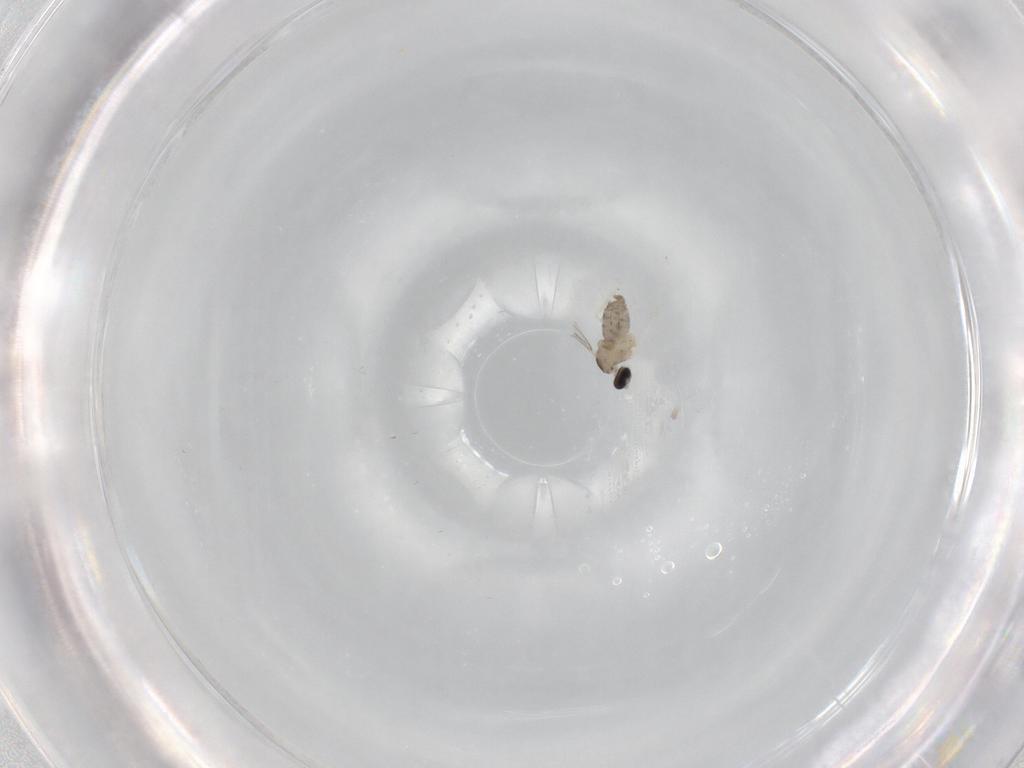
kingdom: Animalia
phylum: Arthropoda
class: Insecta
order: Diptera
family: Cecidomyiidae
